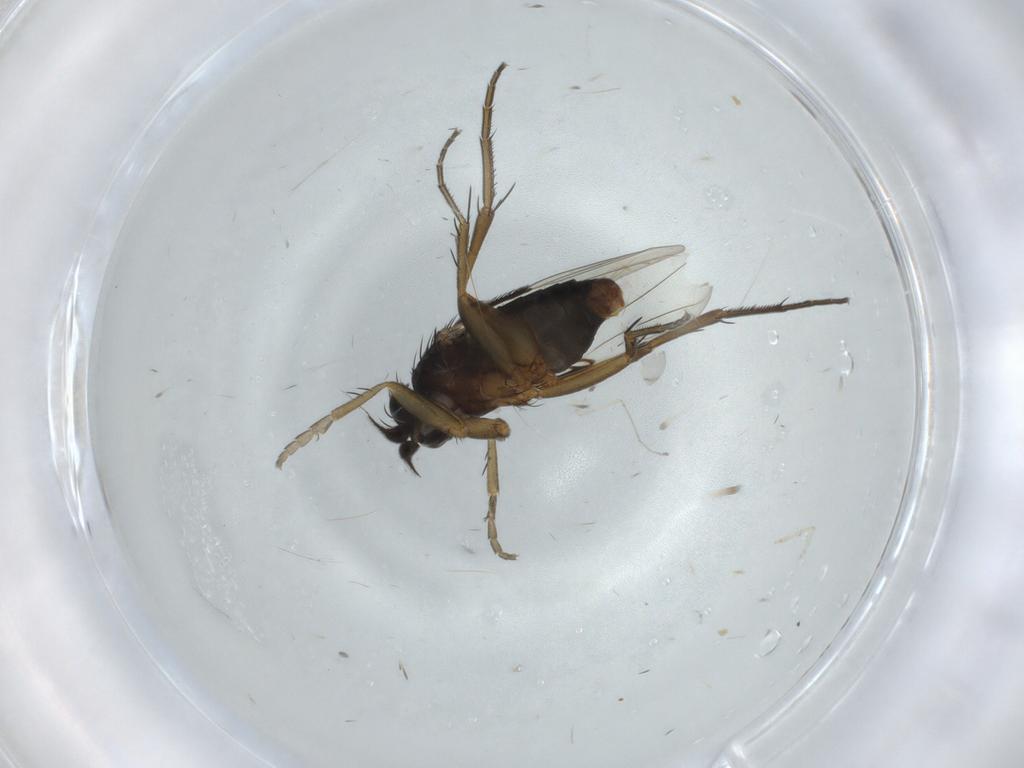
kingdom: Animalia
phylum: Arthropoda
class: Insecta
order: Diptera
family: Phoridae
